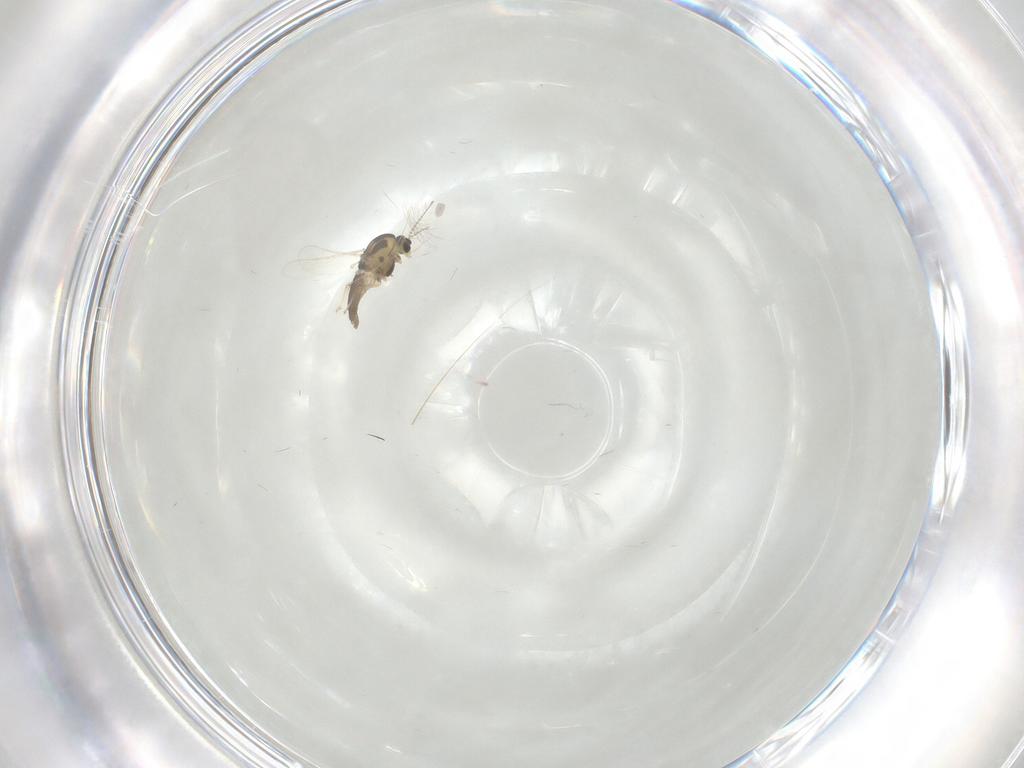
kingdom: Animalia
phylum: Arthropoda
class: Insecta
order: Diptera
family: Chironomidae
